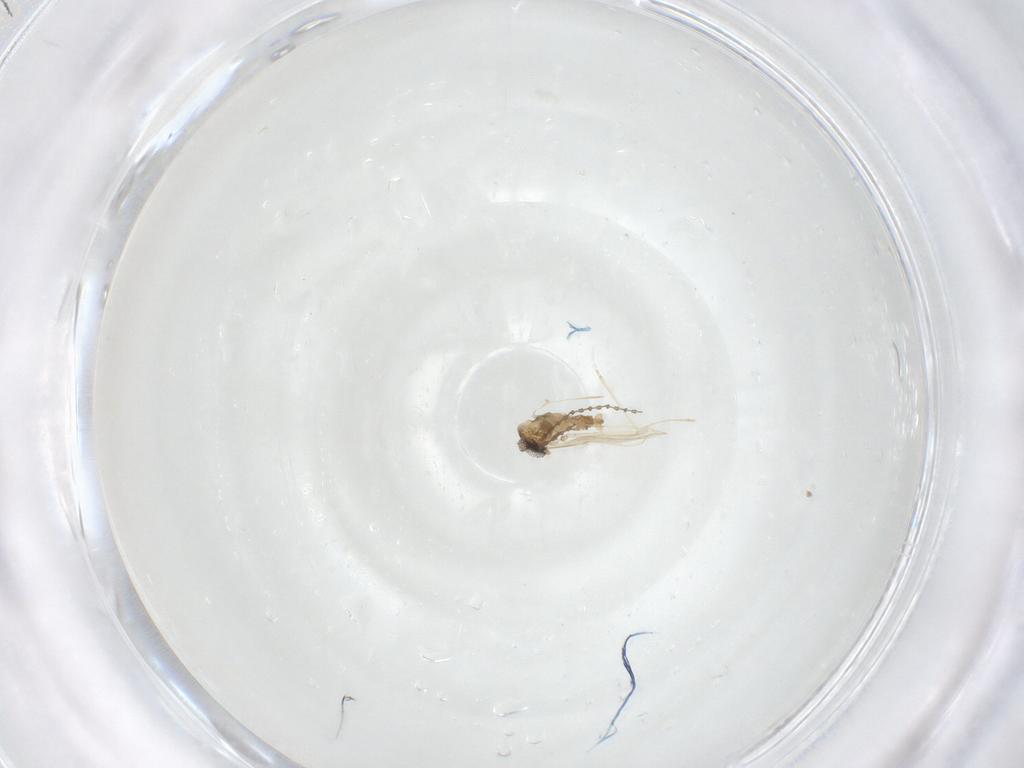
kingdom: Animalia
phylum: Arthropoda
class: Insecta
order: Diptera
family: Cecidomyiidae
